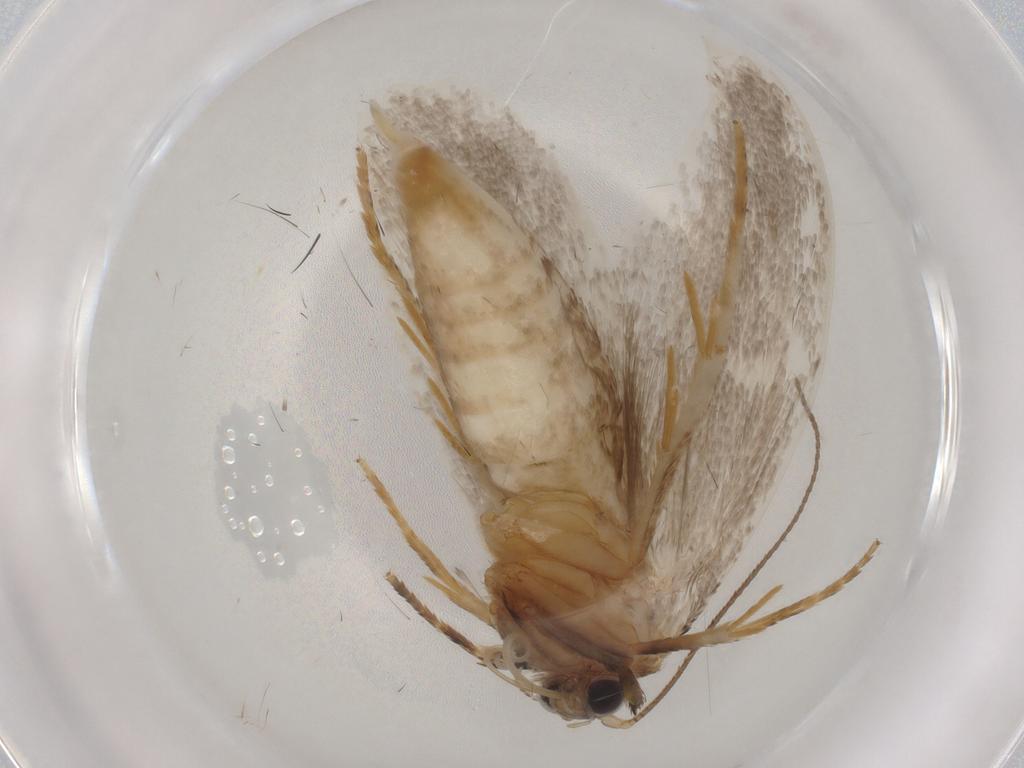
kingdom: Animalia
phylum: Arthropoda
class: Insecta
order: Lepidoptera
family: Eriocottidae
